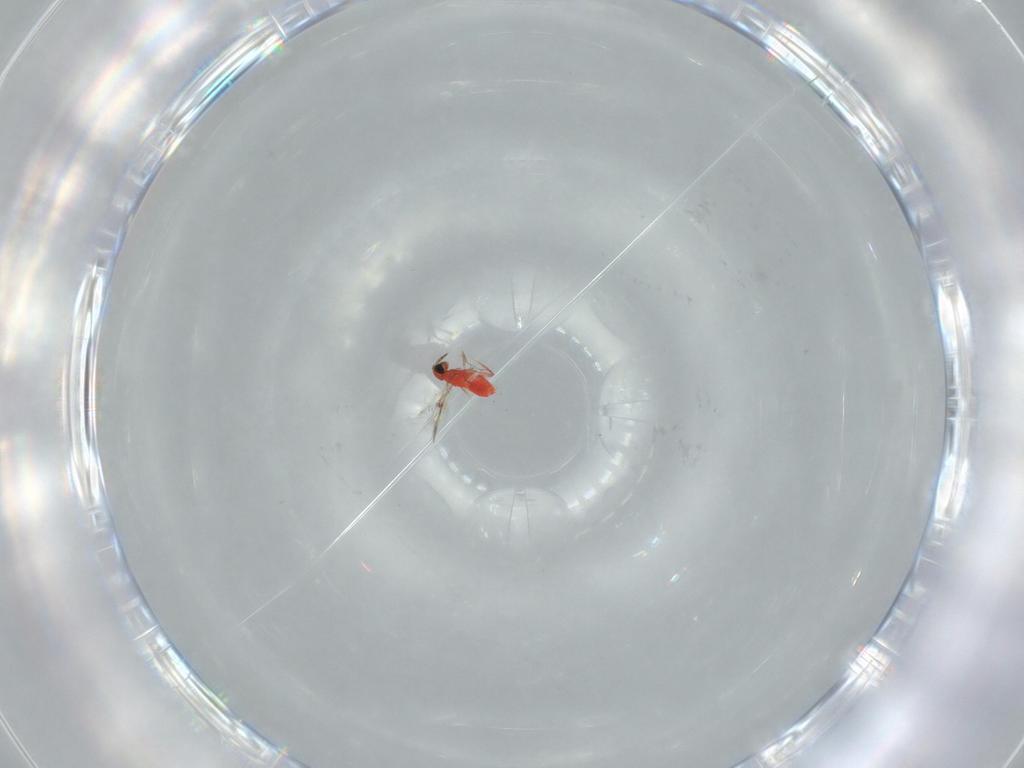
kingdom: Animalia
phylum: Arthropoda
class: Insecta
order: Hymenoptera
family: Trichogrammatidae
